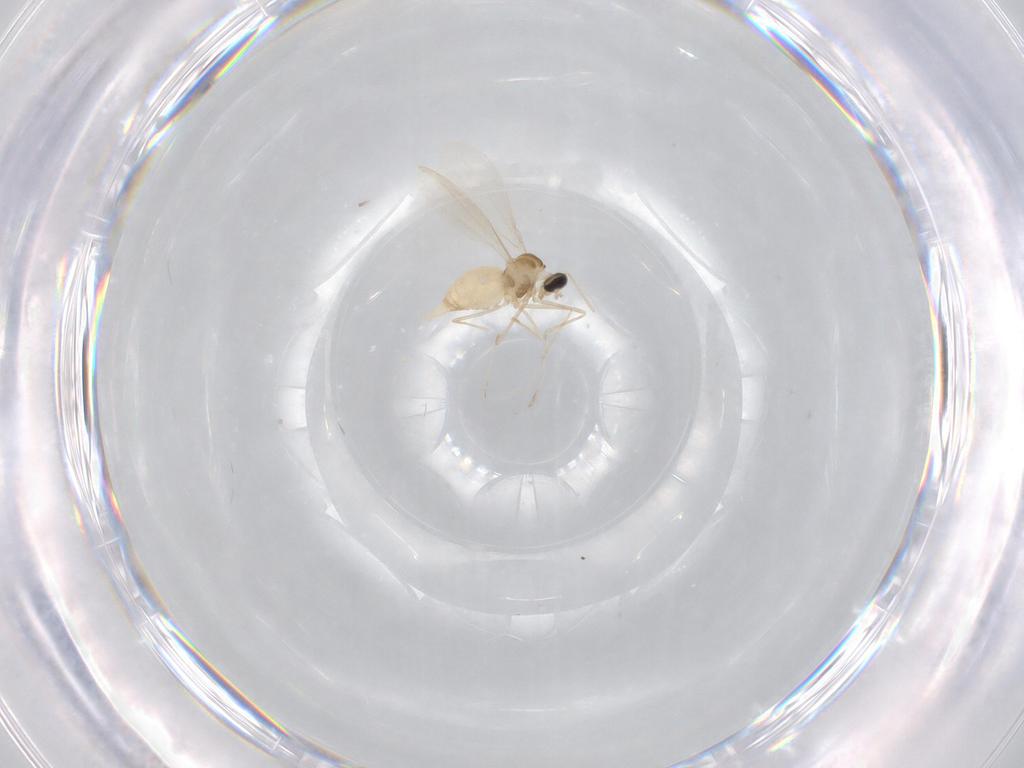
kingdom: Animalia
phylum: Arthropoda
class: Insecta
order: Diptera
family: Cecidomyiidae
